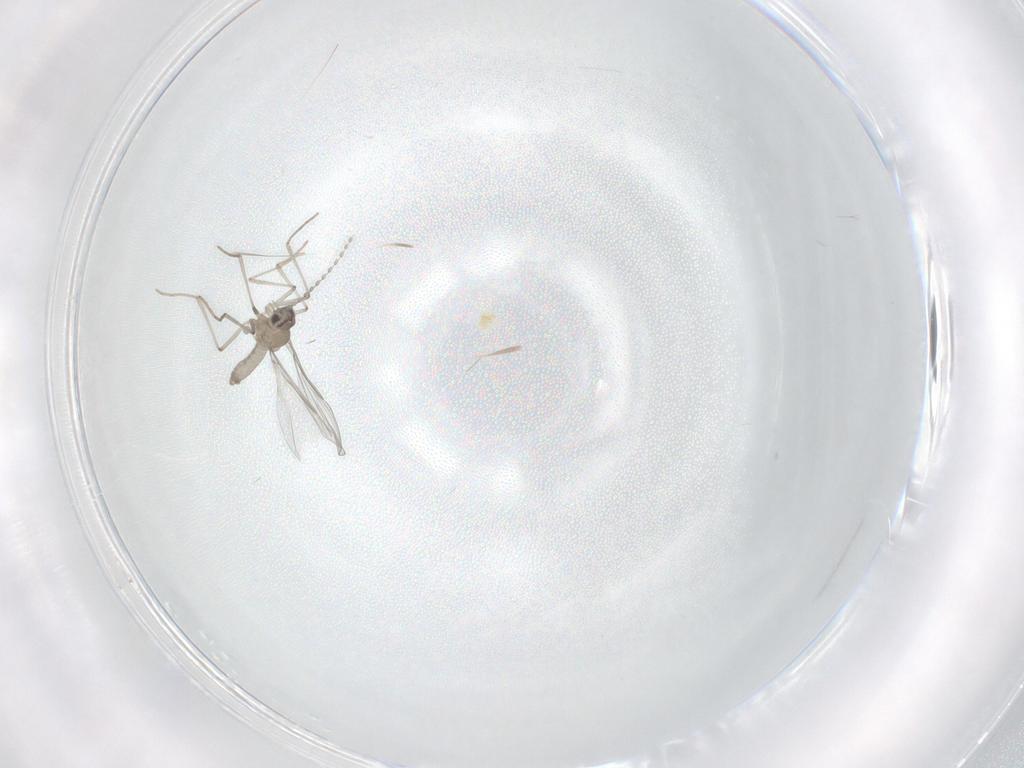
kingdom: Animalia
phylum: Arthropoda
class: Insecta
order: Diptera
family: Cecidomyiidae
